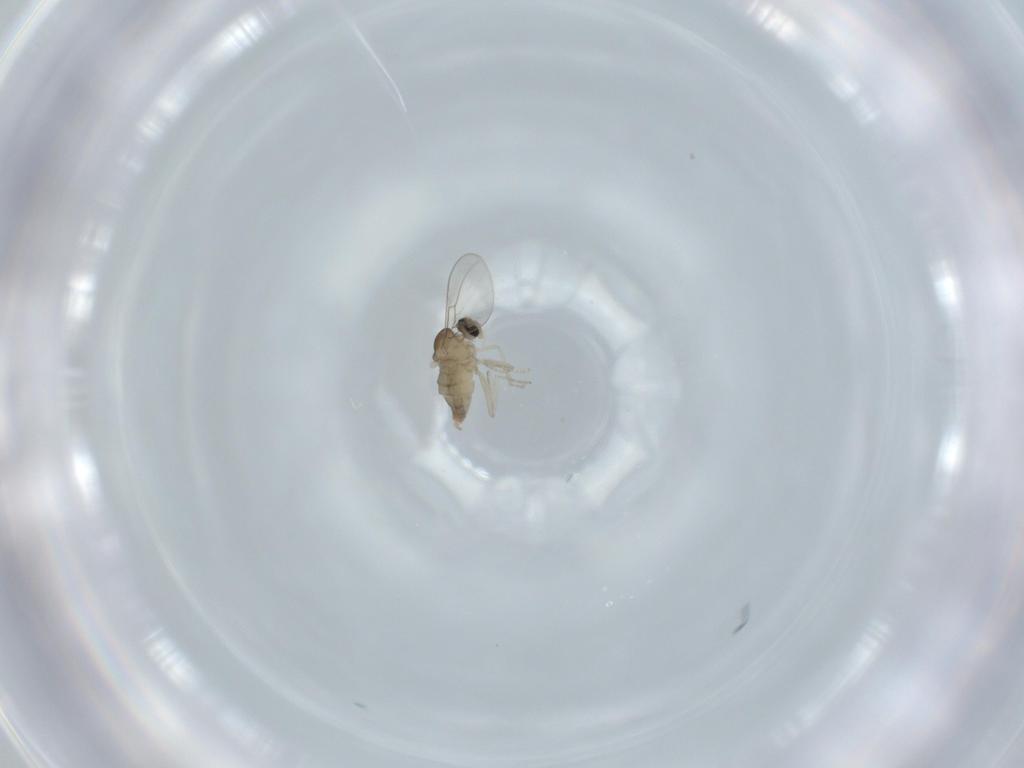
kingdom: Animalia
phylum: Arthropoda
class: Insecta
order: Diptera
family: Cecidomyiidae
